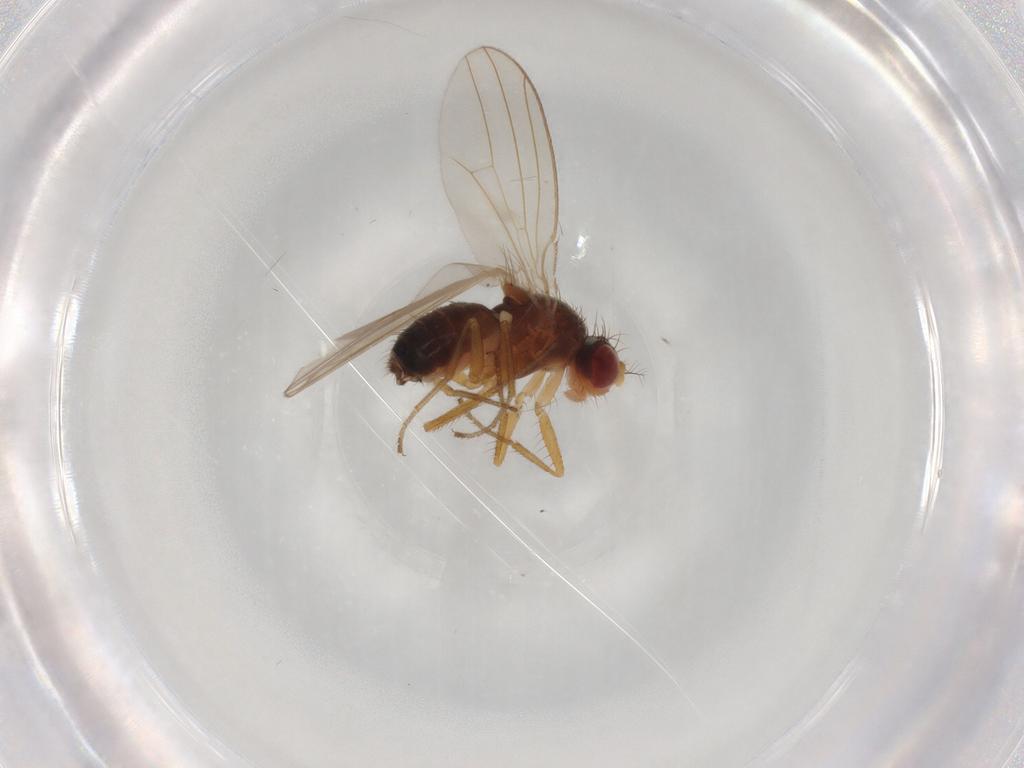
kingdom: Animalia
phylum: Arthropoda
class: Insecta
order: Diptera
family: Drosophilidae
